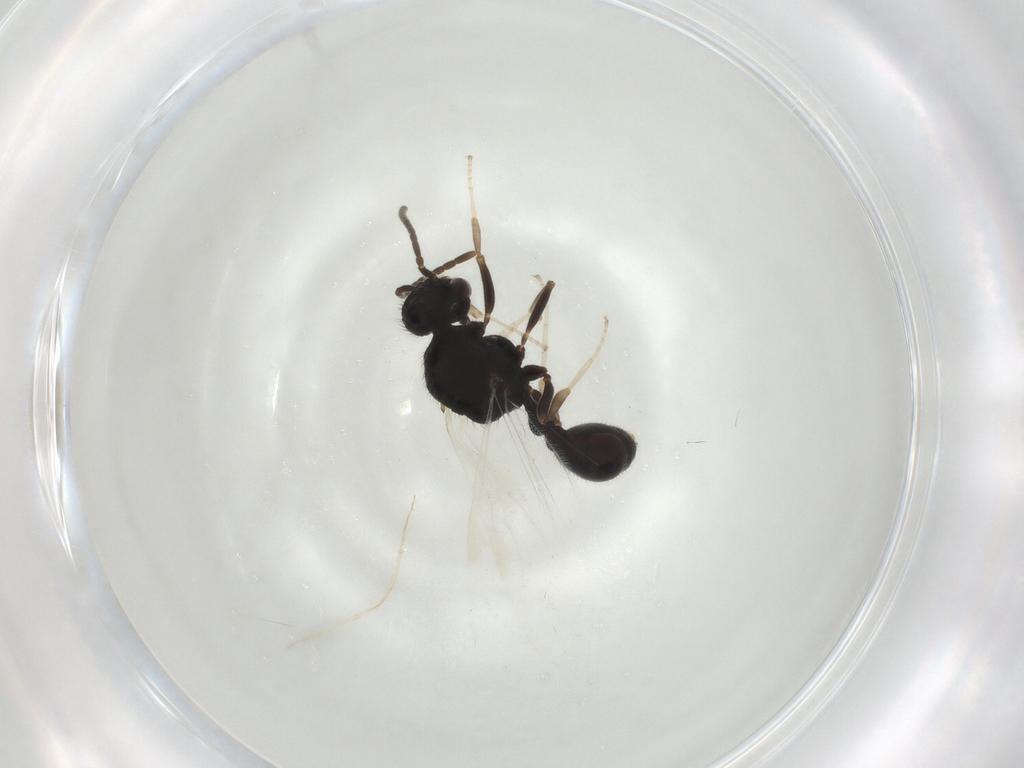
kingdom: Animalia
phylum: Arthropoda
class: Insecta
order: Hymenoptera
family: Formicidae
